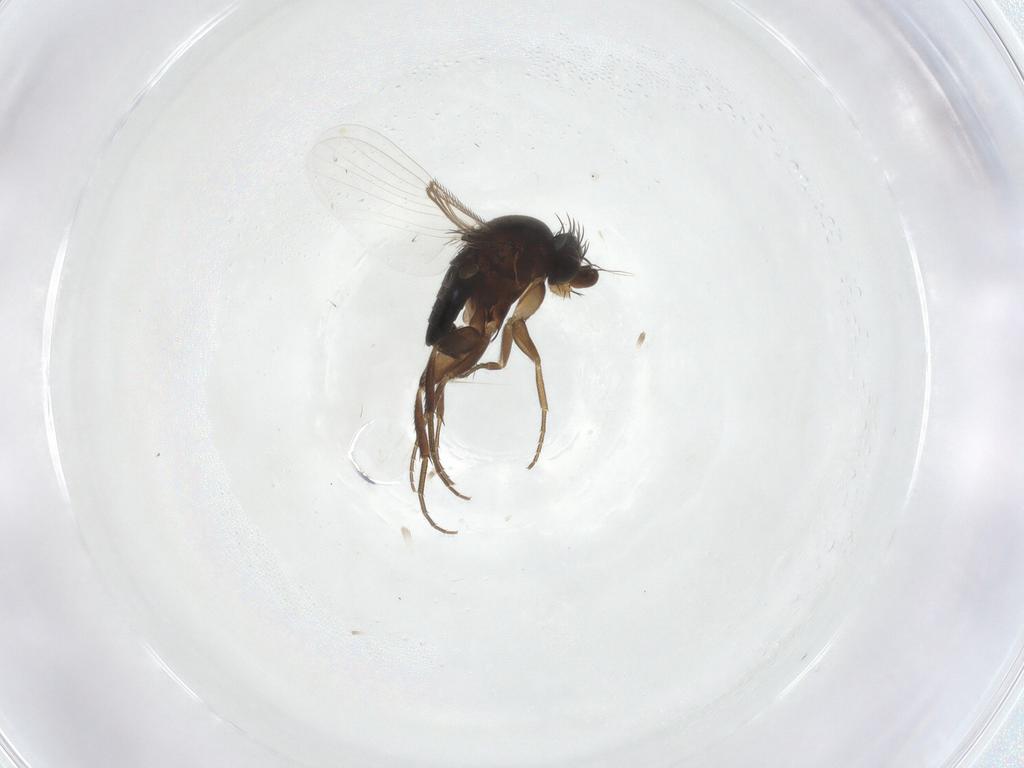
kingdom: Animalia
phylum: Arthropoda
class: Insecta
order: Diptera
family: Phoridae
